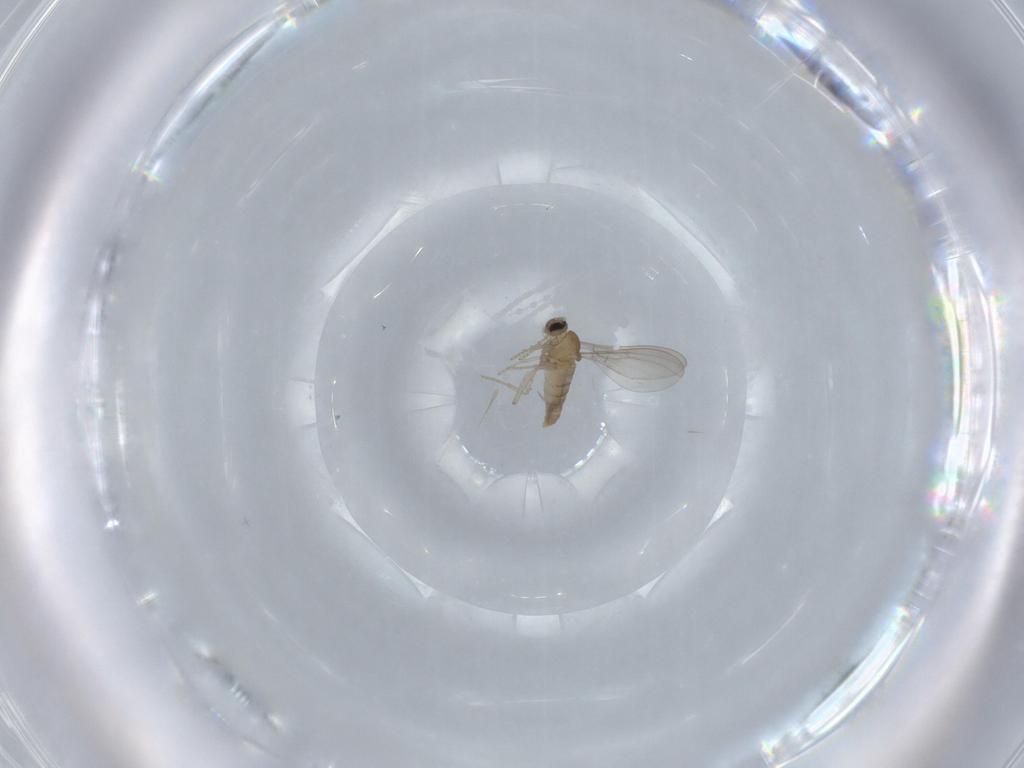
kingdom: Animalia
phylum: Arthropoda
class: Insecta
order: Diptera
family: Cecidomyiidae
